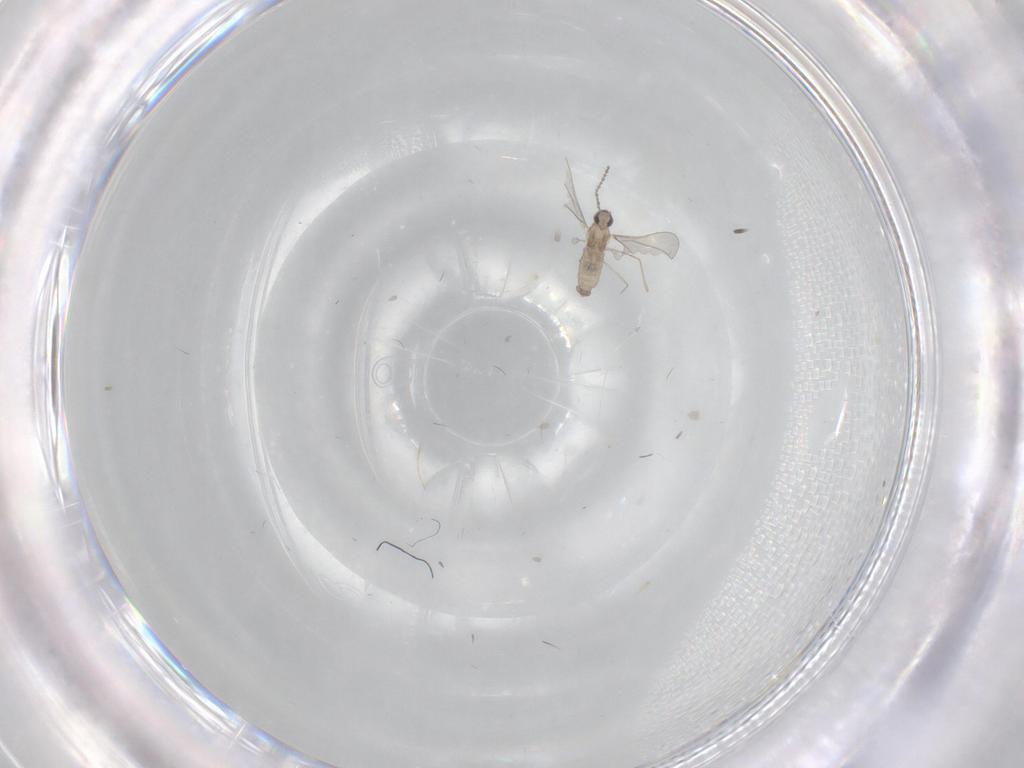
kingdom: Animalia
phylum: Arthropoda
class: Insecta
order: Diptera
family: Cecidomyiidae
